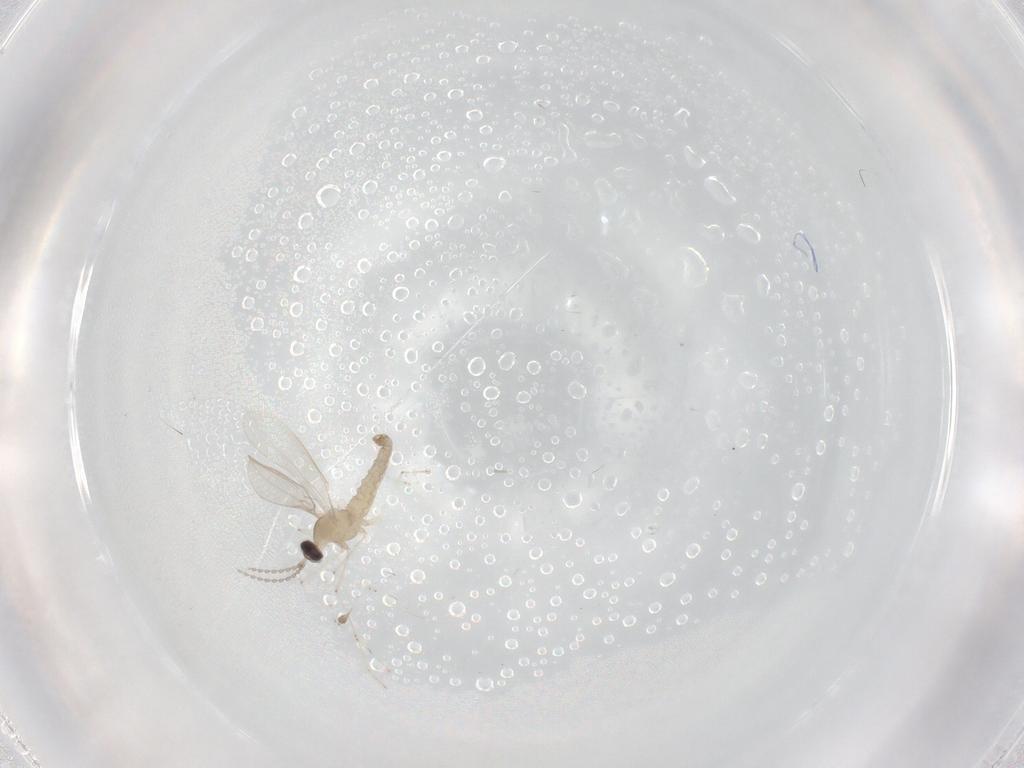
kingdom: Animalia
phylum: Arthropoda
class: Insecta
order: Diptera
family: Cecidomyiidae
